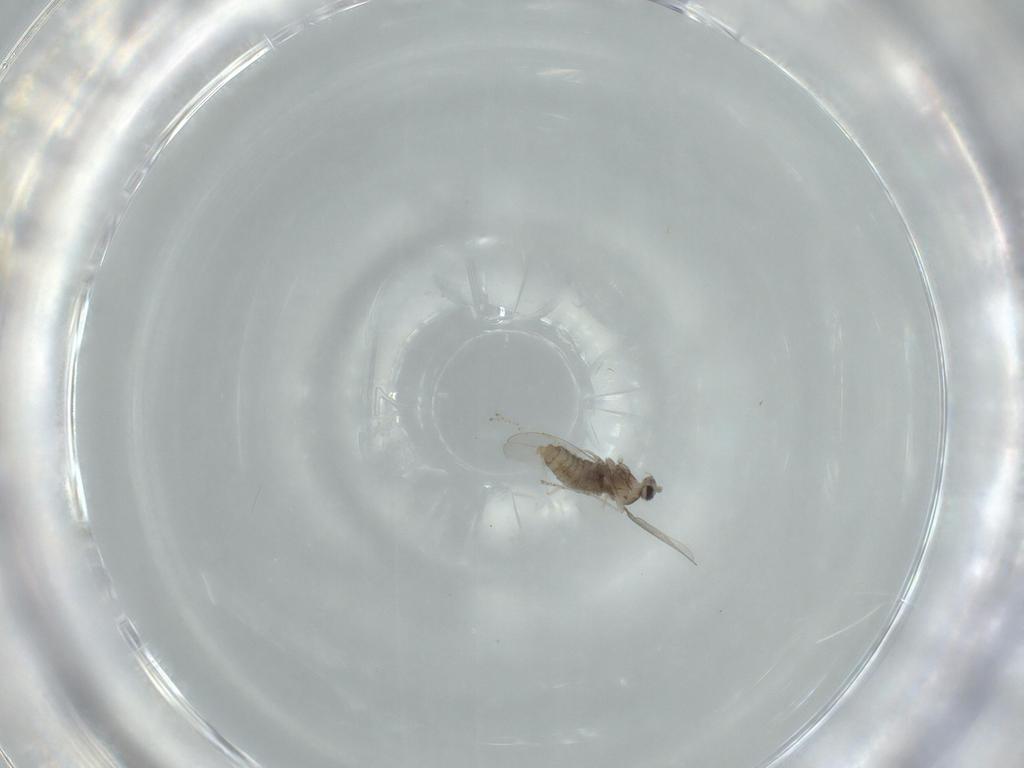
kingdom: Animalia
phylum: Arthropoda
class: Insecta
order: Diptera
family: Cecidomyiidae
